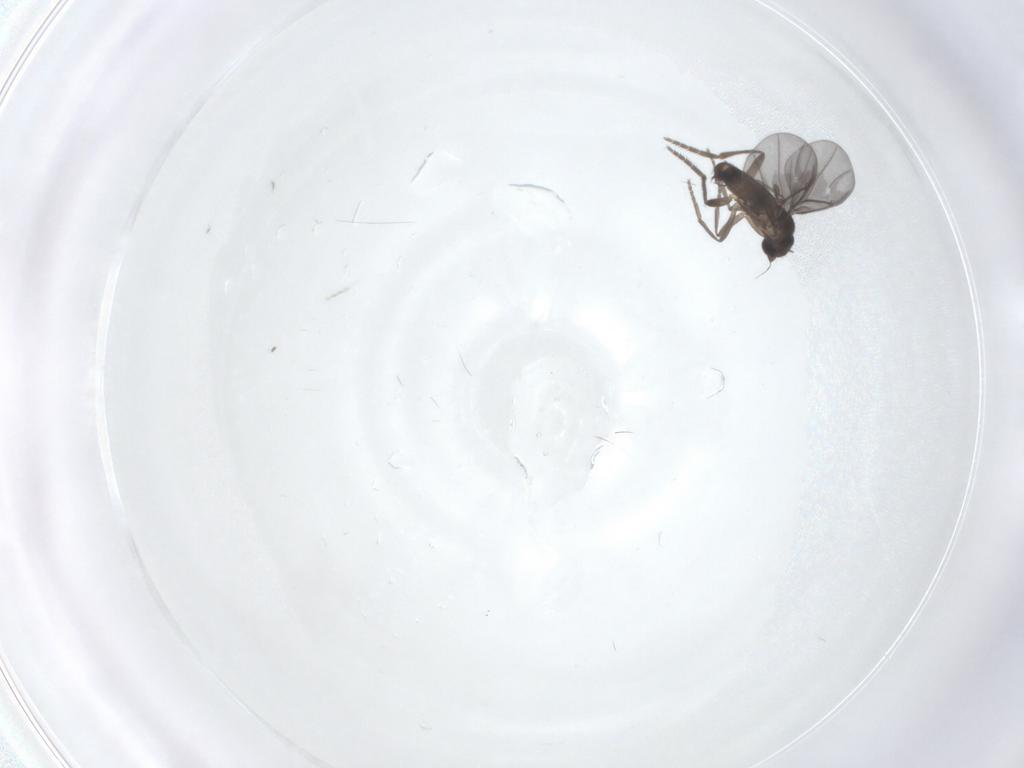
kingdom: Animalia
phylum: Arthropoda
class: Insecta
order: Diptera
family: Phoridae
